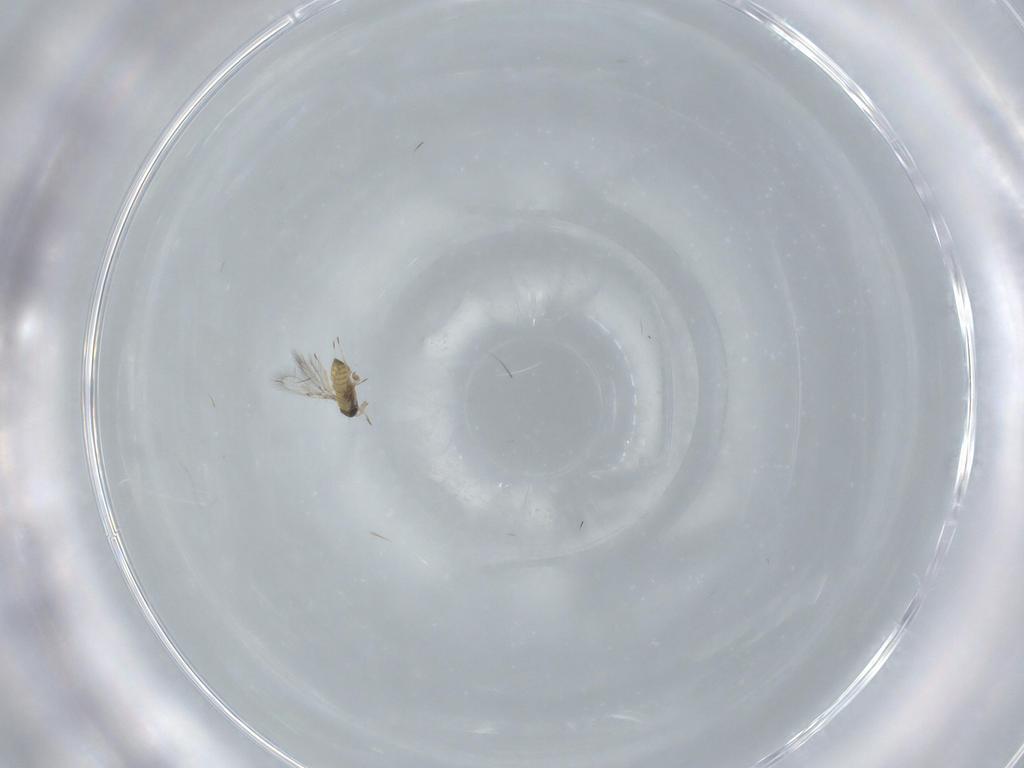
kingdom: Animalia
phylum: Arthropoda
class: Insecta
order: Hymenoptera
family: Trichogrammatidae
